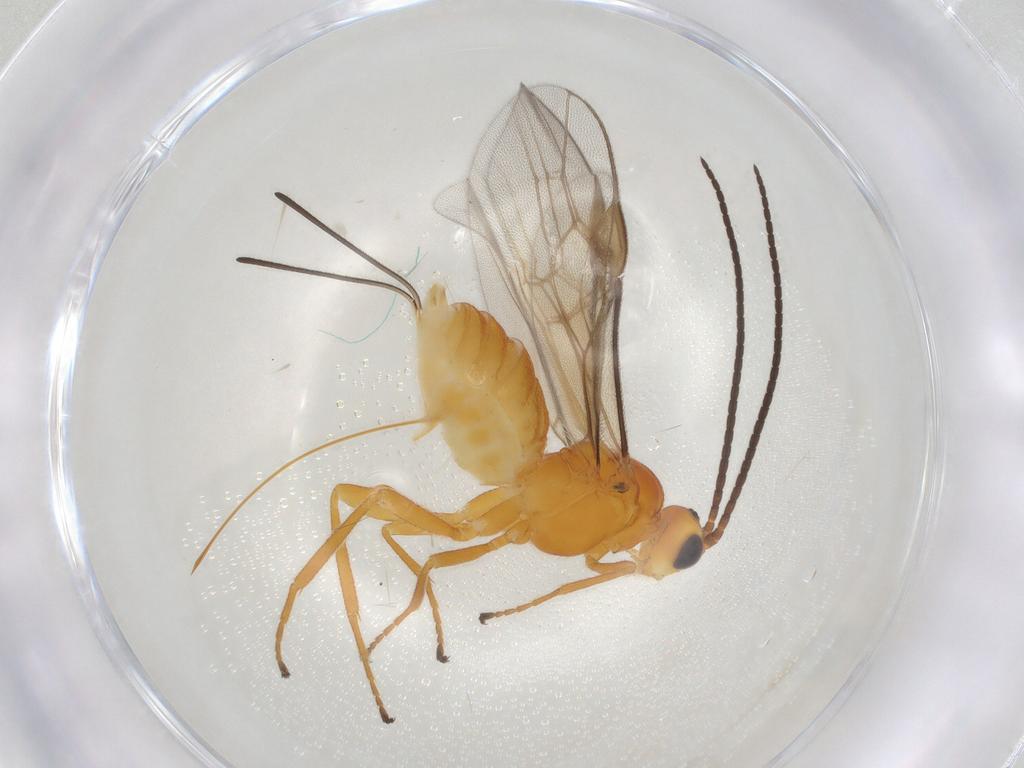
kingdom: Animalia
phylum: Arthropoda
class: Insecta
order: Hymenoptera
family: Braconidae
